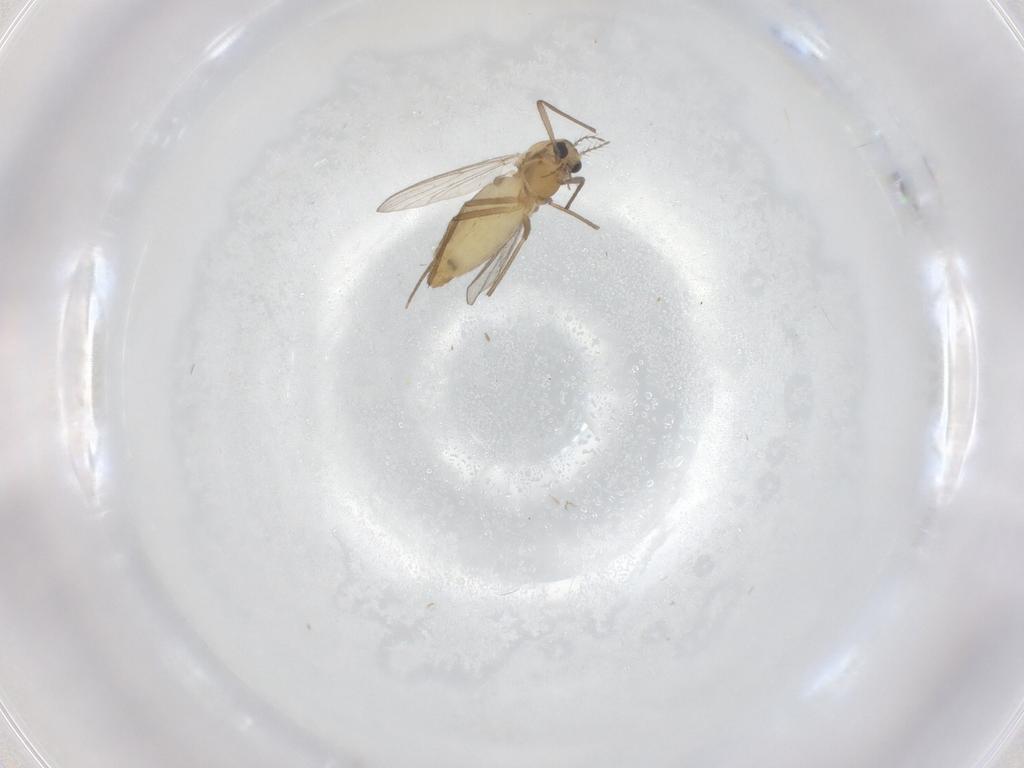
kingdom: Animalia
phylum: Arthropoda
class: Insecta
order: Diptera
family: Chironomidae
